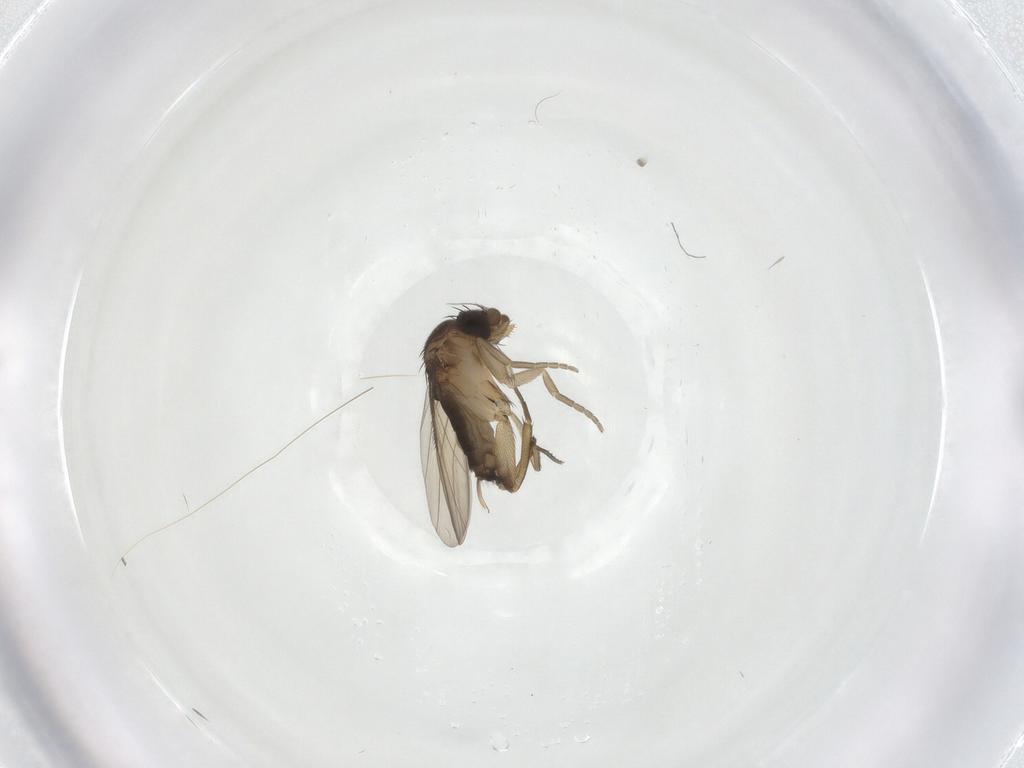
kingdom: Animalia
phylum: Arthropoda
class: Insecta
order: Diptera
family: Phoridae
